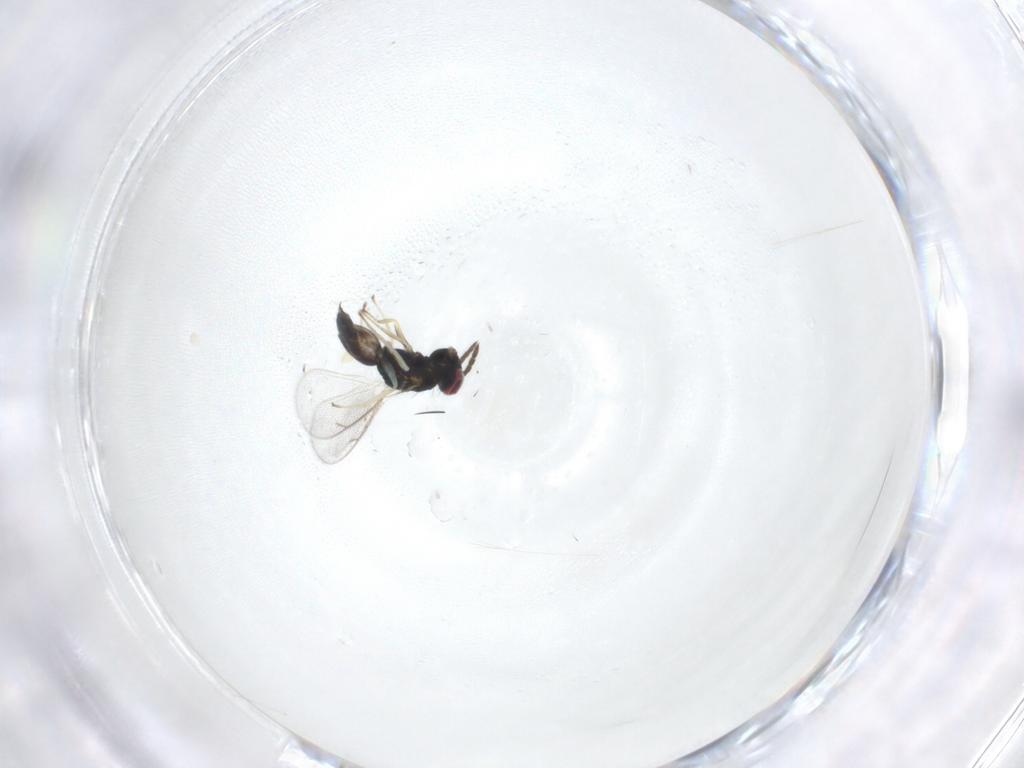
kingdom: Animalia
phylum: Arthropoda
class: Insecta
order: Hymenoptera
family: Eulophidae
